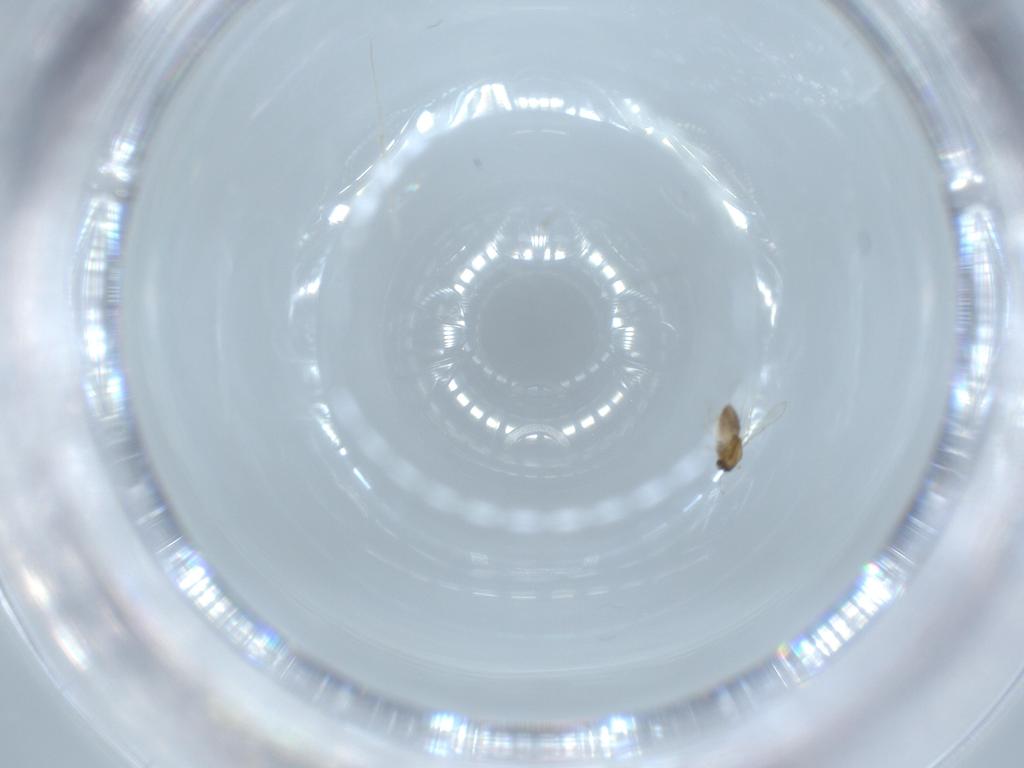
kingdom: Animalia
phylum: Arthropoda
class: Insecta
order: Diptera
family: Chironomidae
